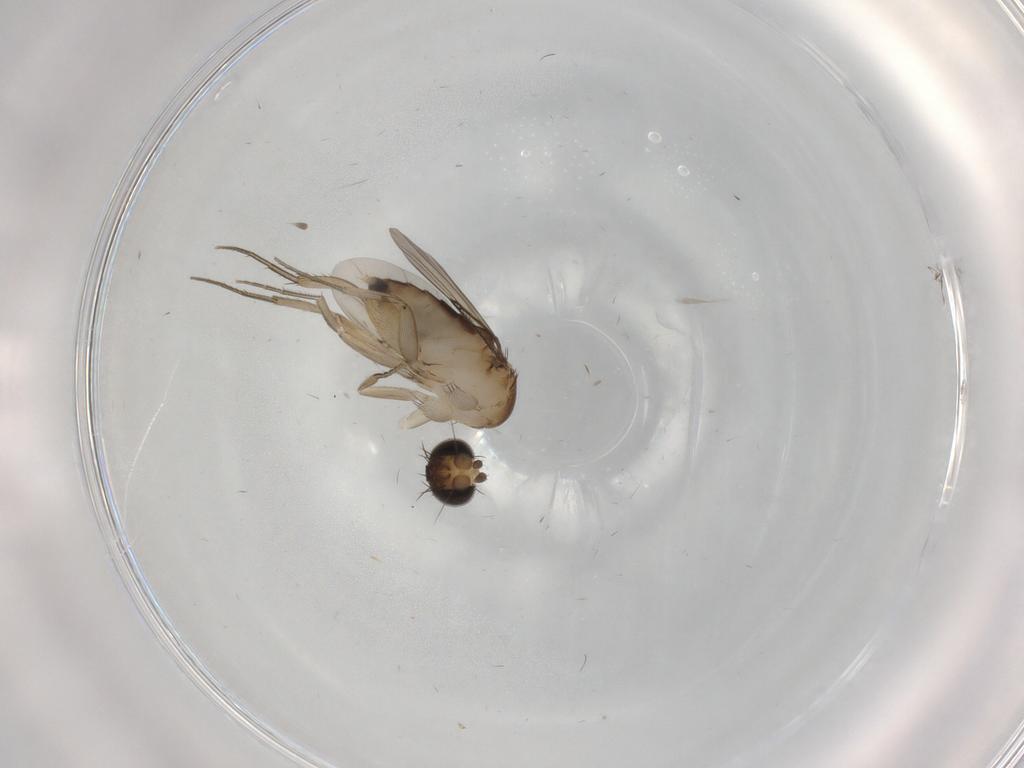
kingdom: Animalia
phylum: Arthropoda
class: Insecta
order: Diptera
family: Phoridae
